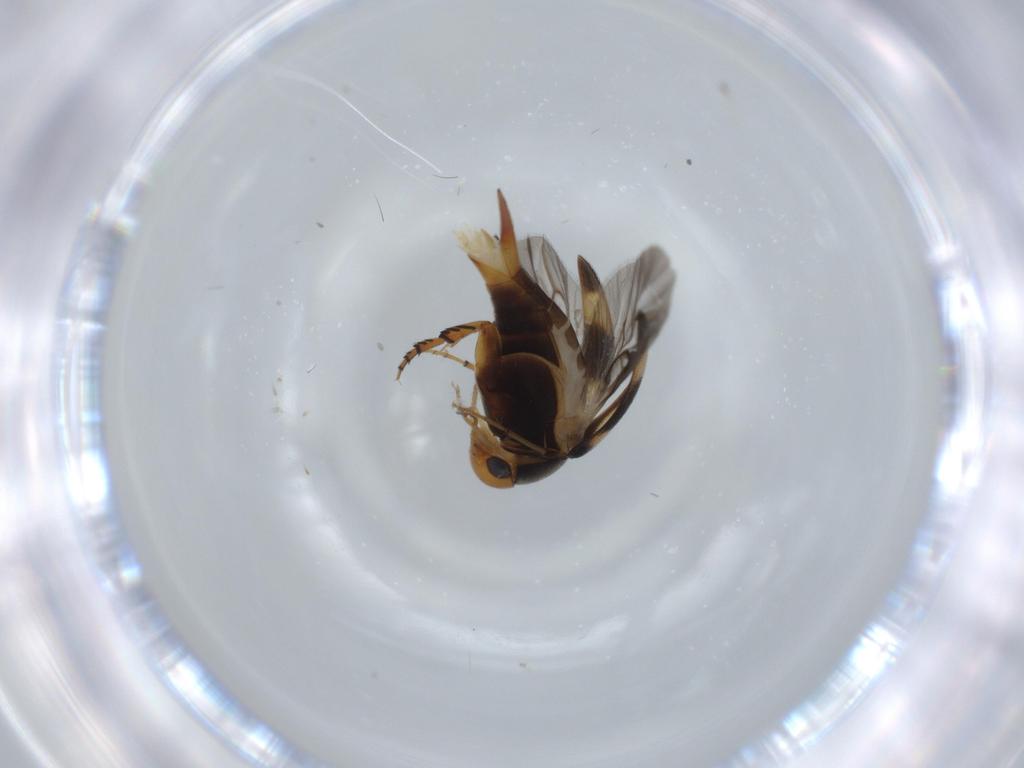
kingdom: Animalia
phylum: Arthropoda
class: Insecta
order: Coleoptera
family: Mordellidae
